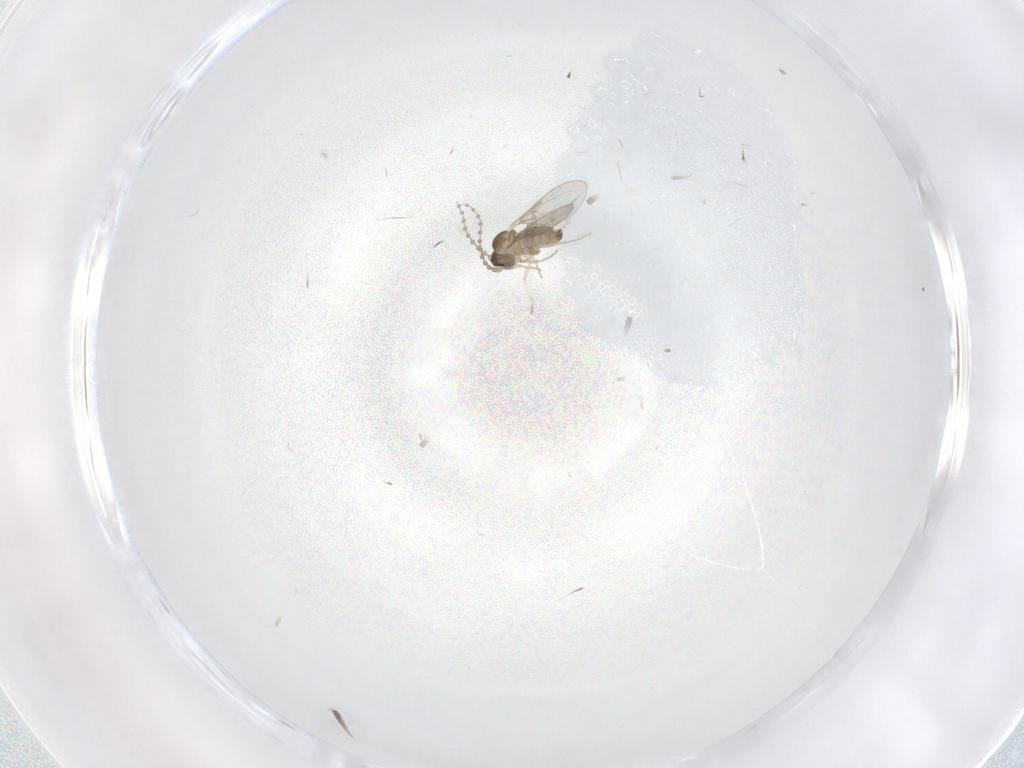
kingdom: Animalia
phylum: Arthropoda
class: Insecta
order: Diptera
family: Cecidomyiidae
